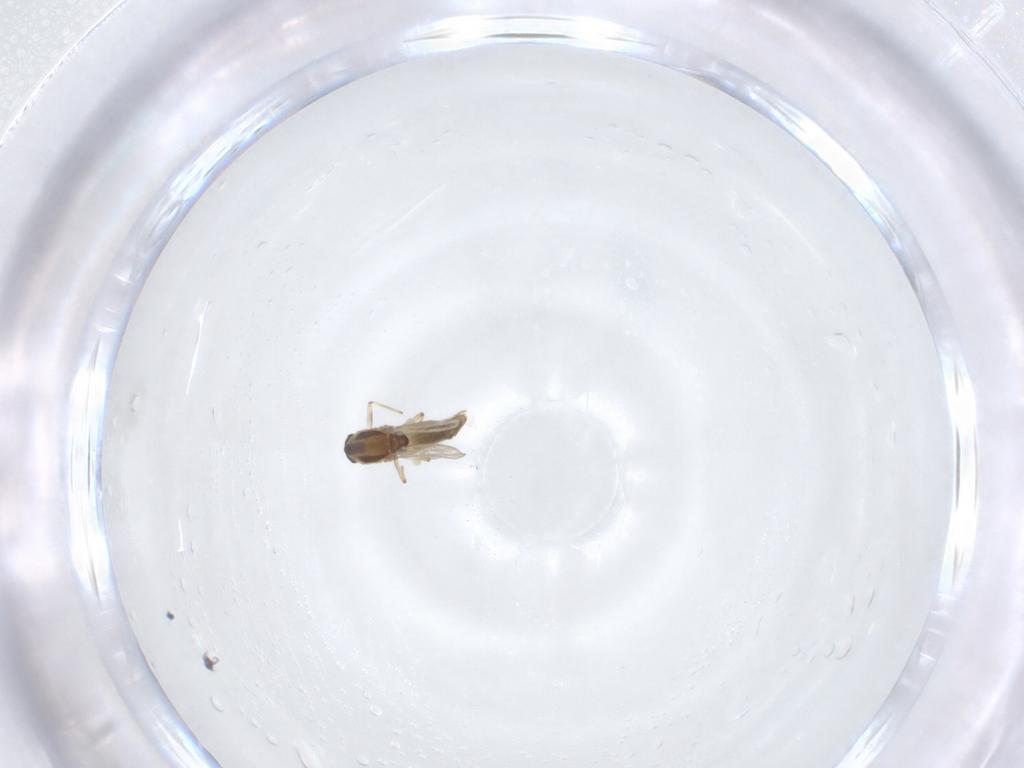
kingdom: Animalia
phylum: Arthropoda
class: Insecta
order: Diptera
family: Chironomidae
